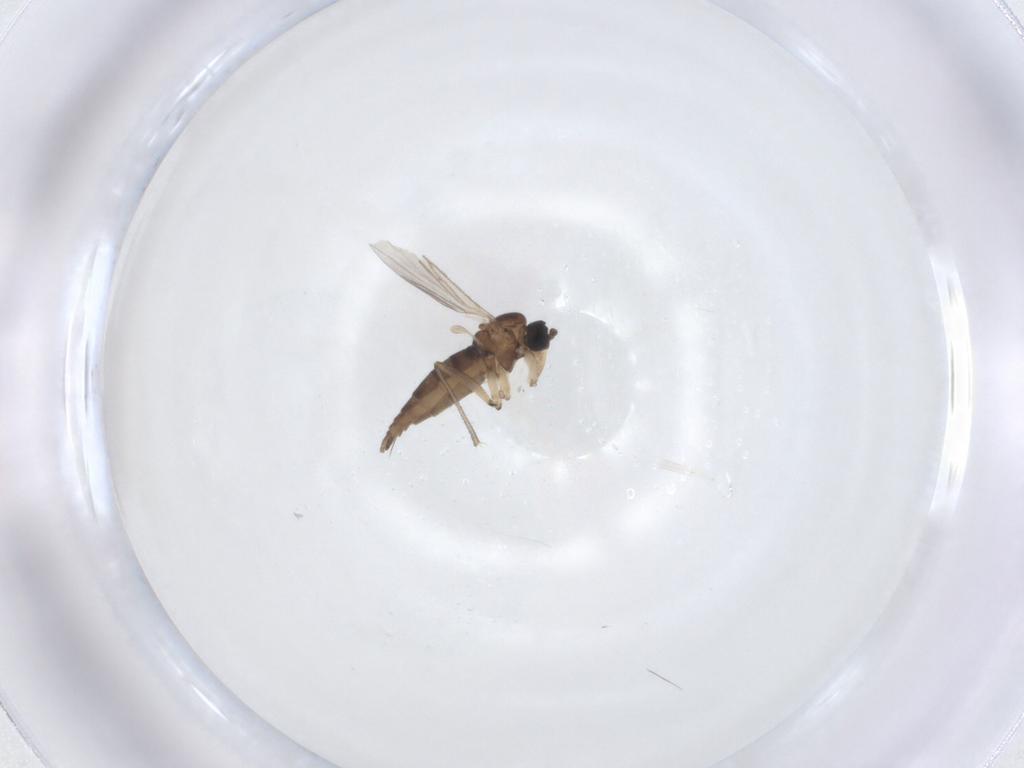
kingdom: Animalia
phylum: Arthropoda
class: Insecta
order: Diptera
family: Empididae
